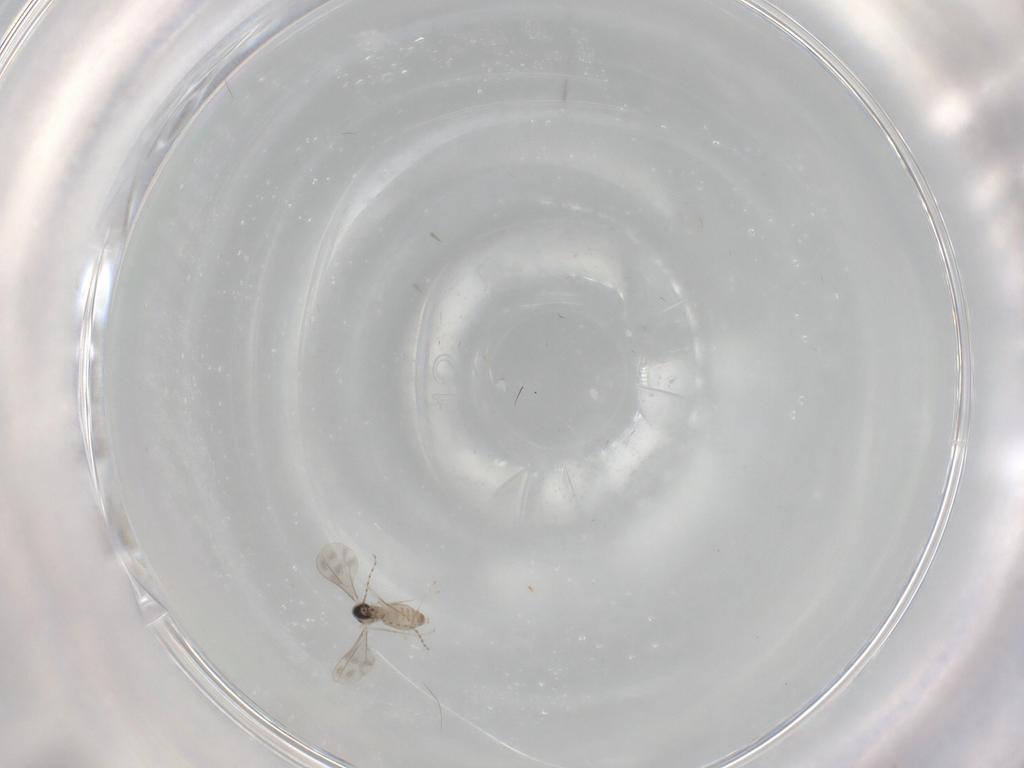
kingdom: Animalia
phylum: Arthropoda
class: Insecta
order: Diptera
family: Cecidomyiidae
